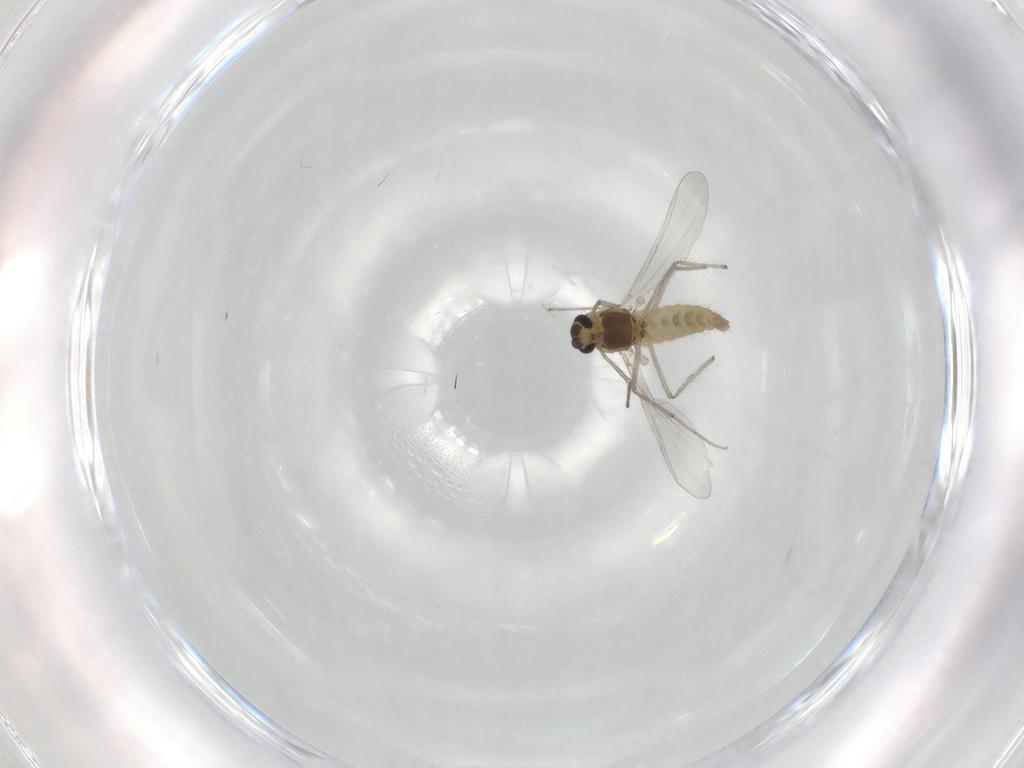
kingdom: Animalia
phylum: Arthropoda
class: Insecta
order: Diptera
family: Chironomidae
